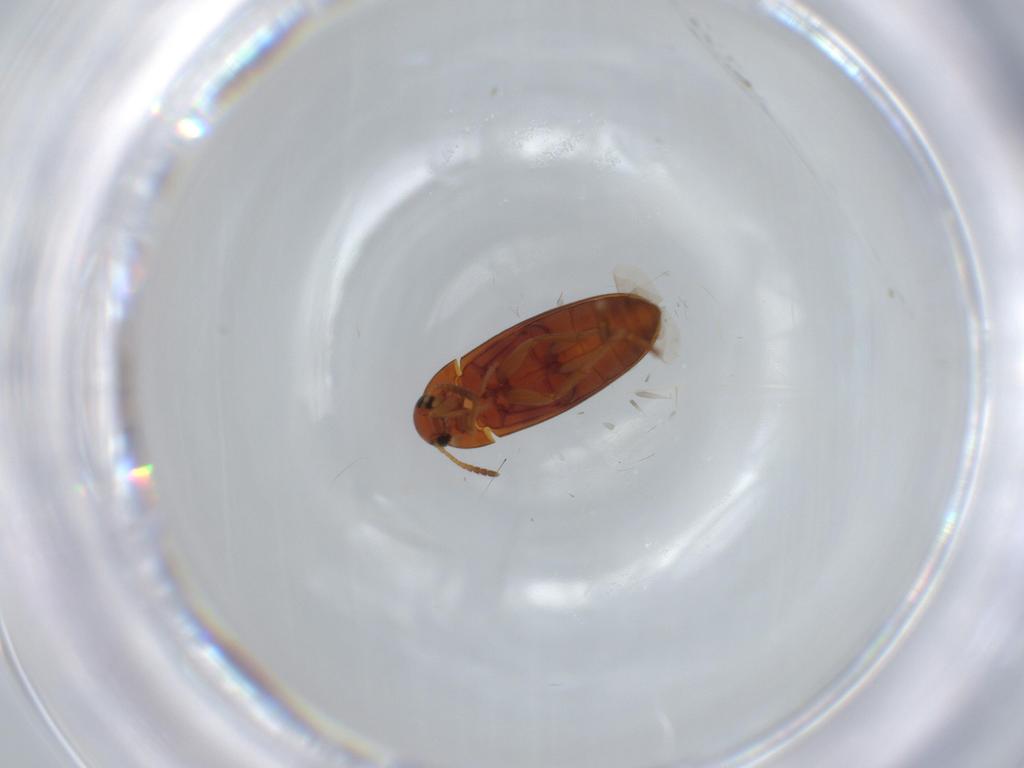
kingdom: Animalia
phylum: Arthropoda
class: Insecta
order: Coleoptera
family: Scraptiidae
